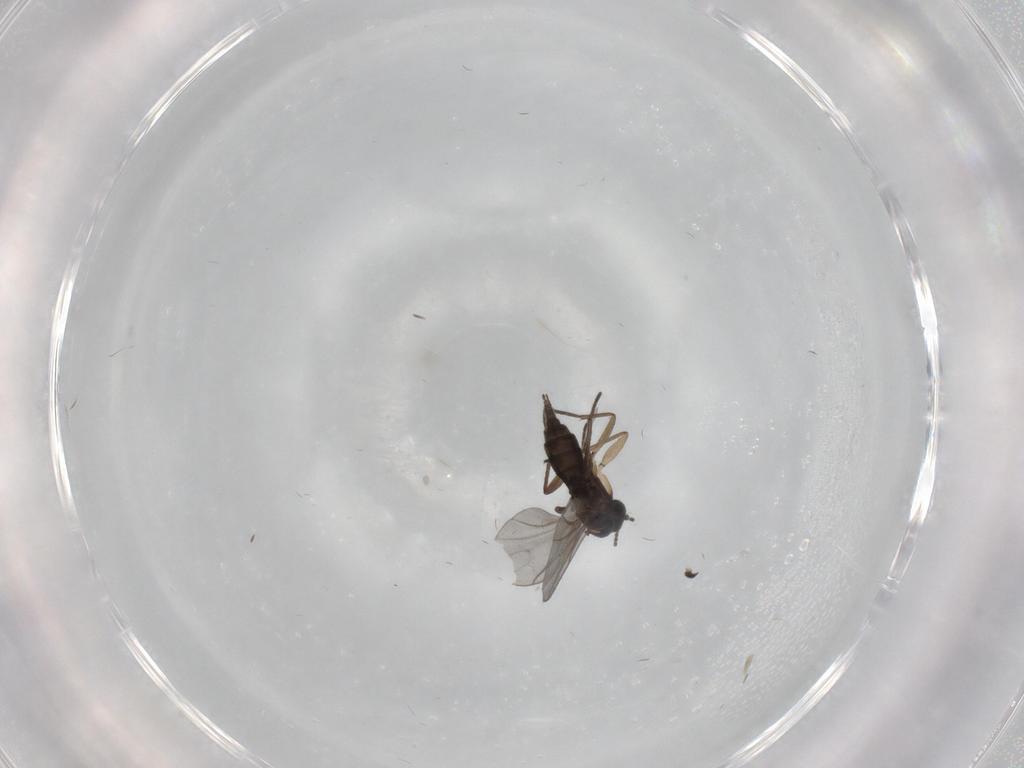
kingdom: Animalia
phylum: Arthropoda
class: Insecta
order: Diptera
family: Sciaridae
